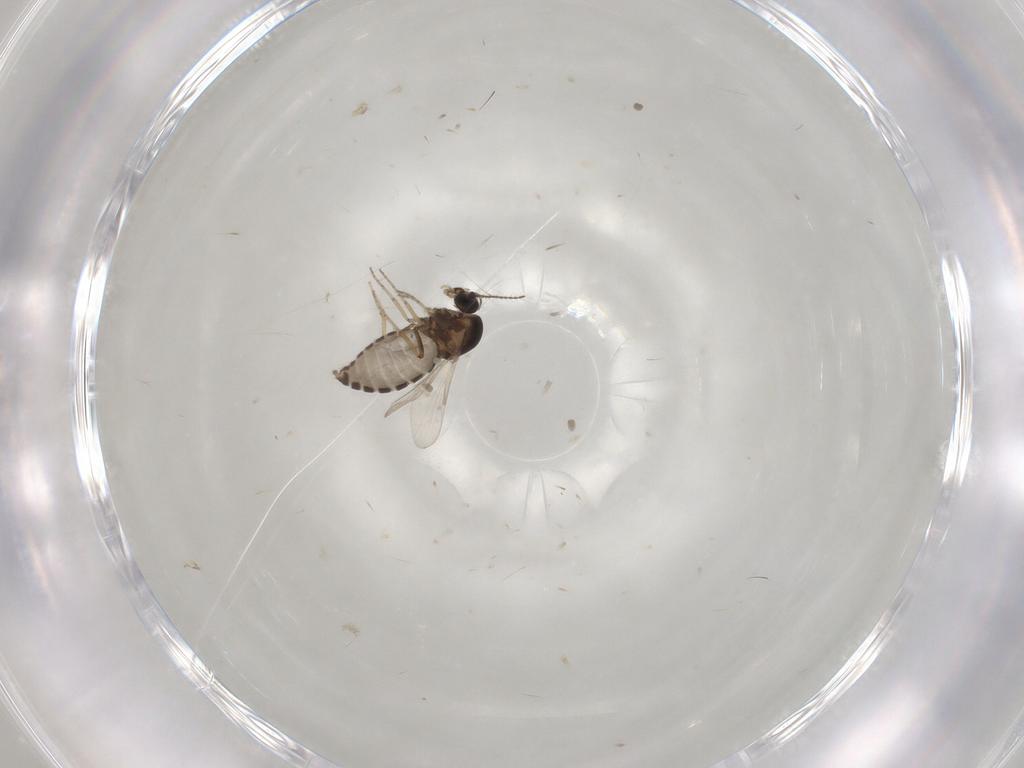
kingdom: Animalia
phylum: Arthropoda
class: Insecta
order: Diptera
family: Ceratopogonidae
